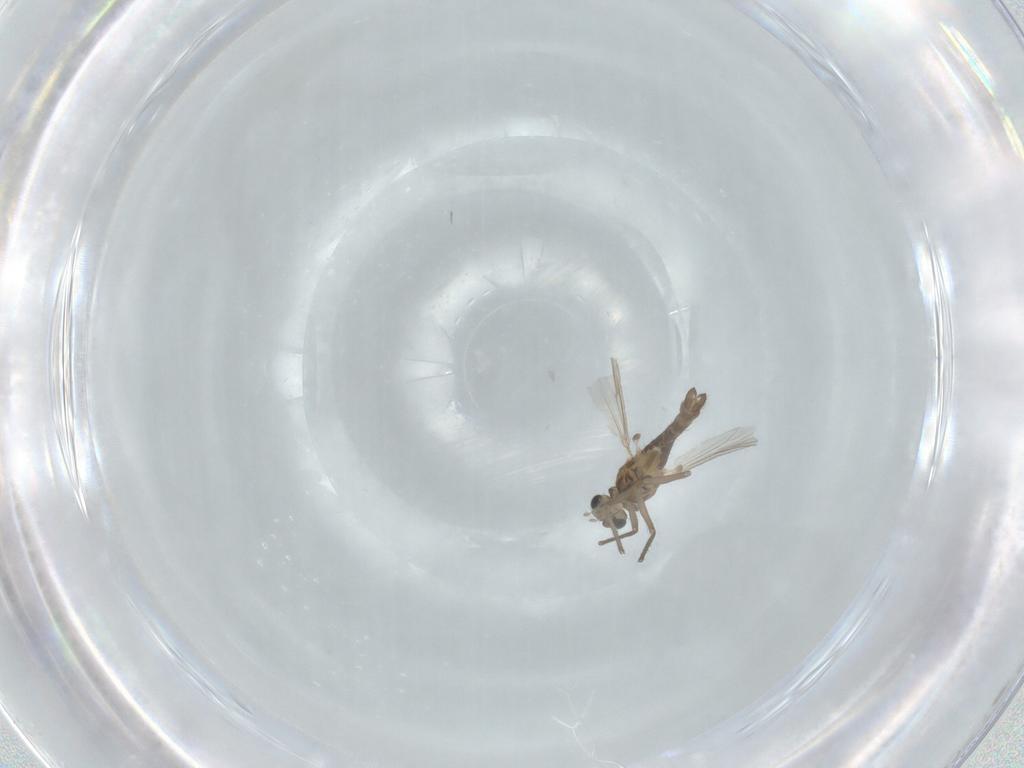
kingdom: Animalia
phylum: Arthropoda
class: Insecta
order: Diptera
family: Chironomidae
